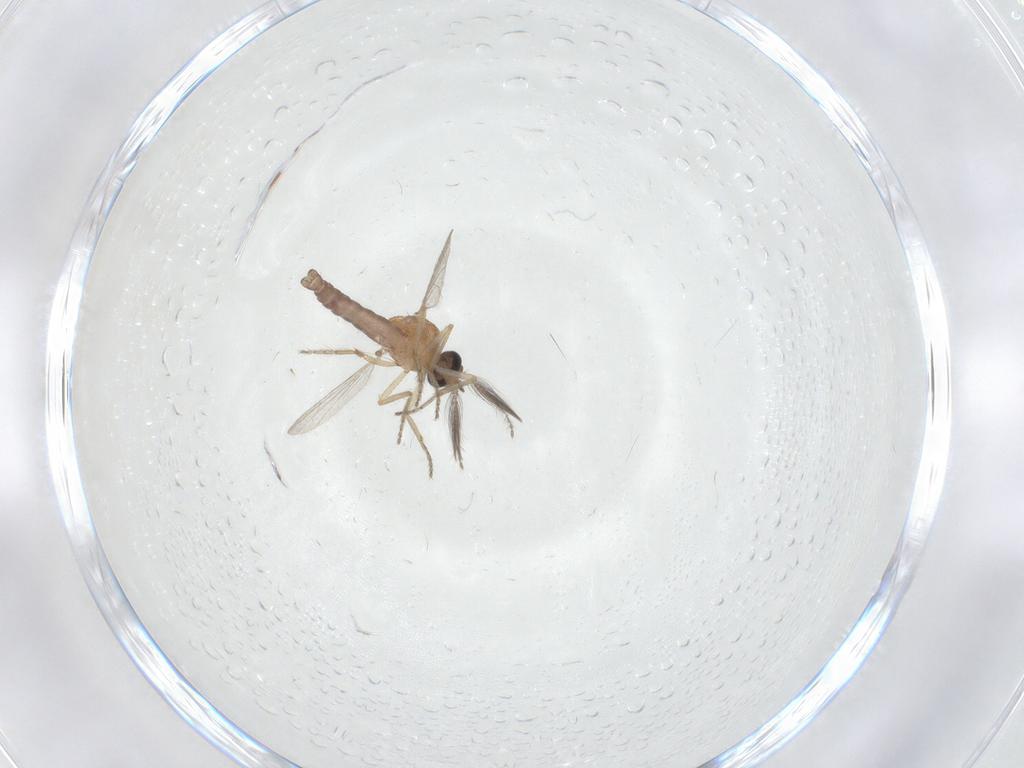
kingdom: Animalia
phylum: Arthropoda
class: Insecta
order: Diptera
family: Ceratopogonidae
